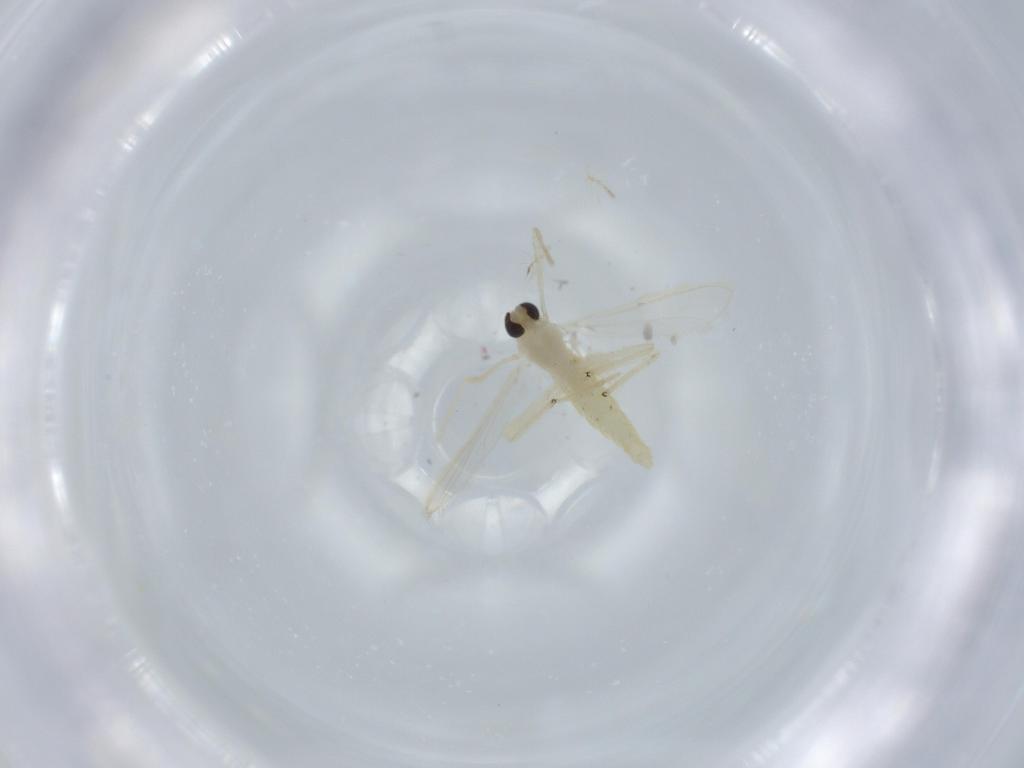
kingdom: Animalia
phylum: Arthropoda
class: Insecta
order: Diptera
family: Chironomidae
